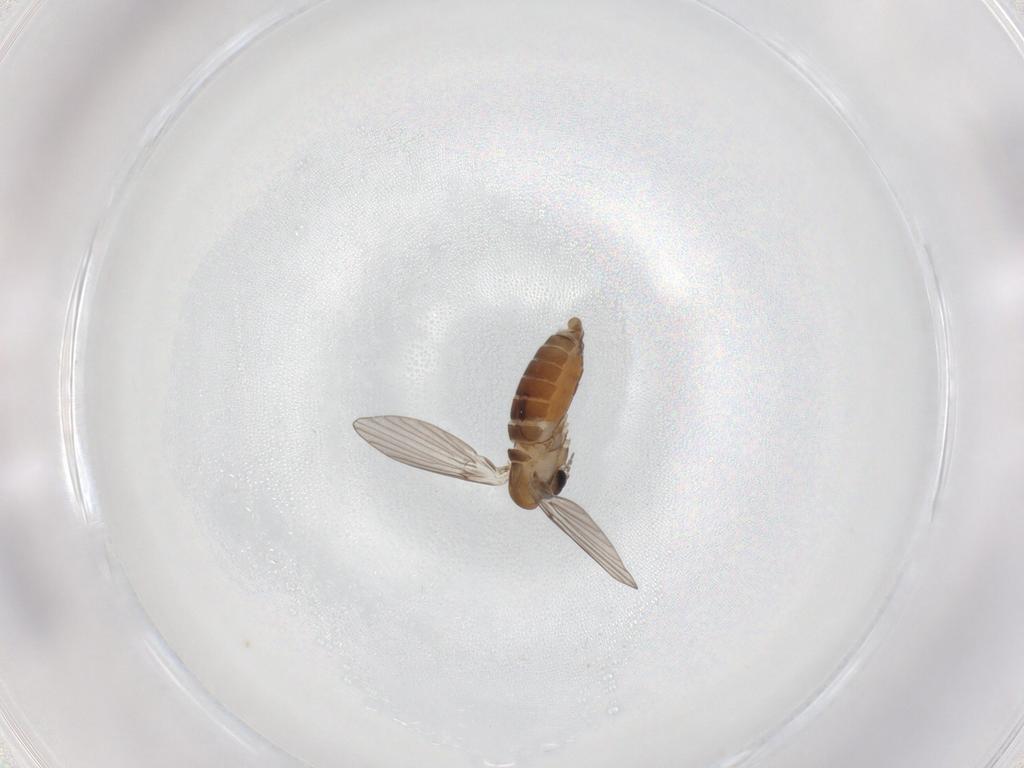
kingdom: Animalia
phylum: Arthropoda
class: Insecta
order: Diptera
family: Dolichopodidae
